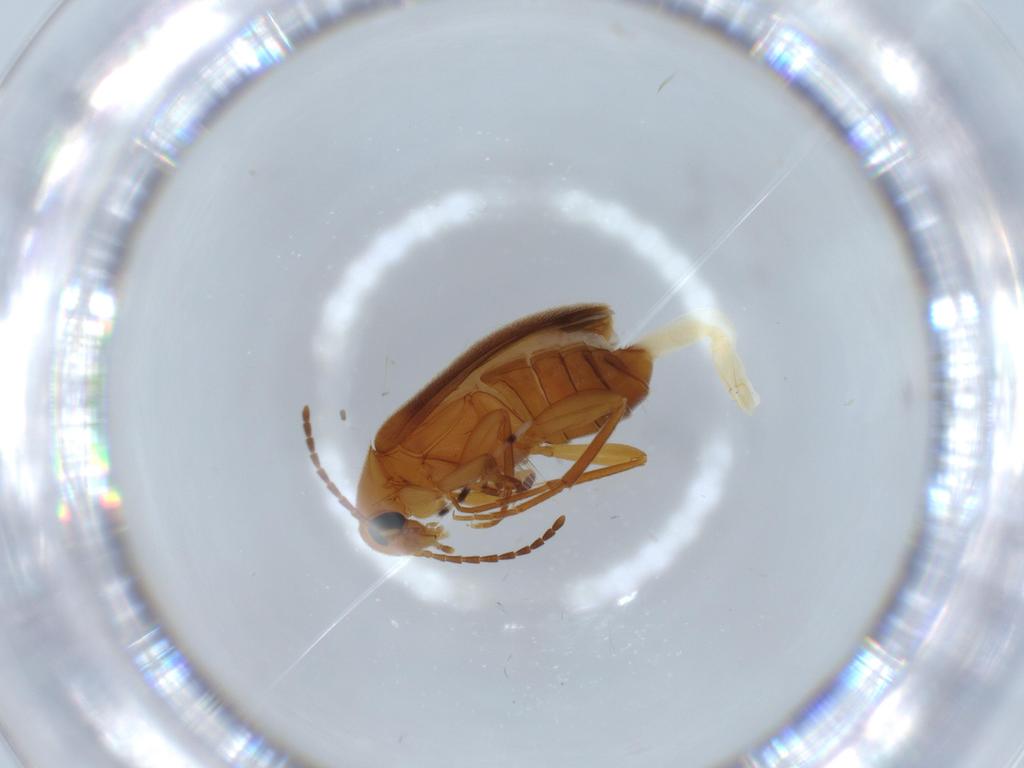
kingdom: Animalia
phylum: Arthropoda
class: Insecta
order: Coleoptera
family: Scraptiidae
